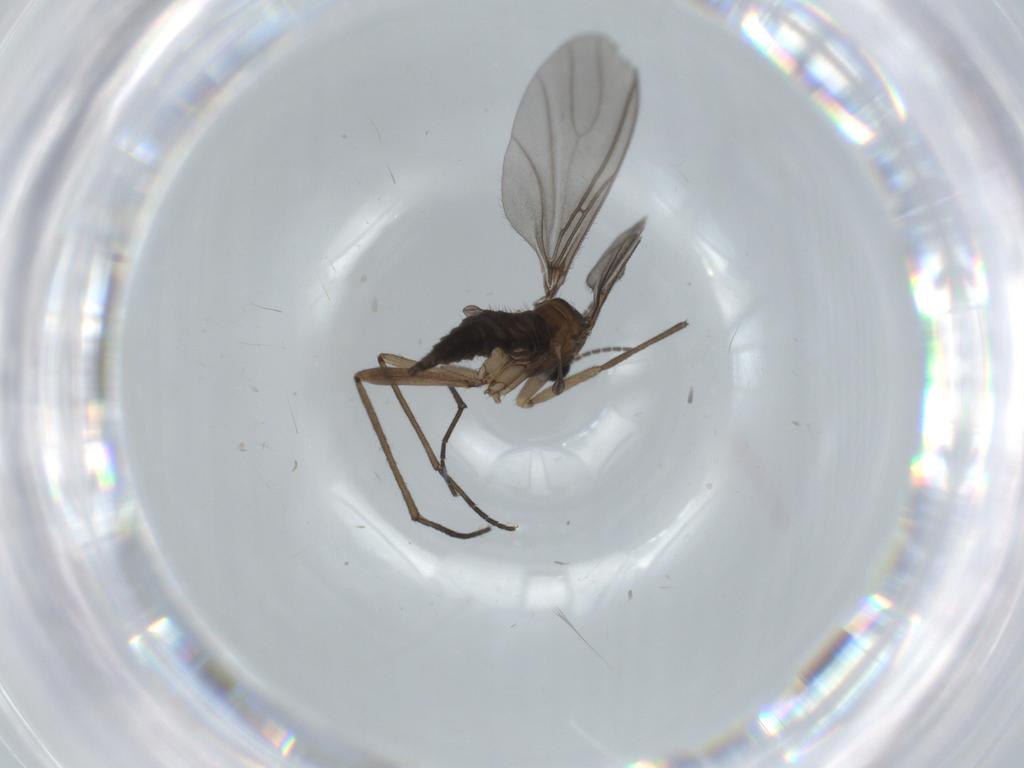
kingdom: Animalia
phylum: Arthropoda
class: Insecta
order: Diptera
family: Sciaridae
